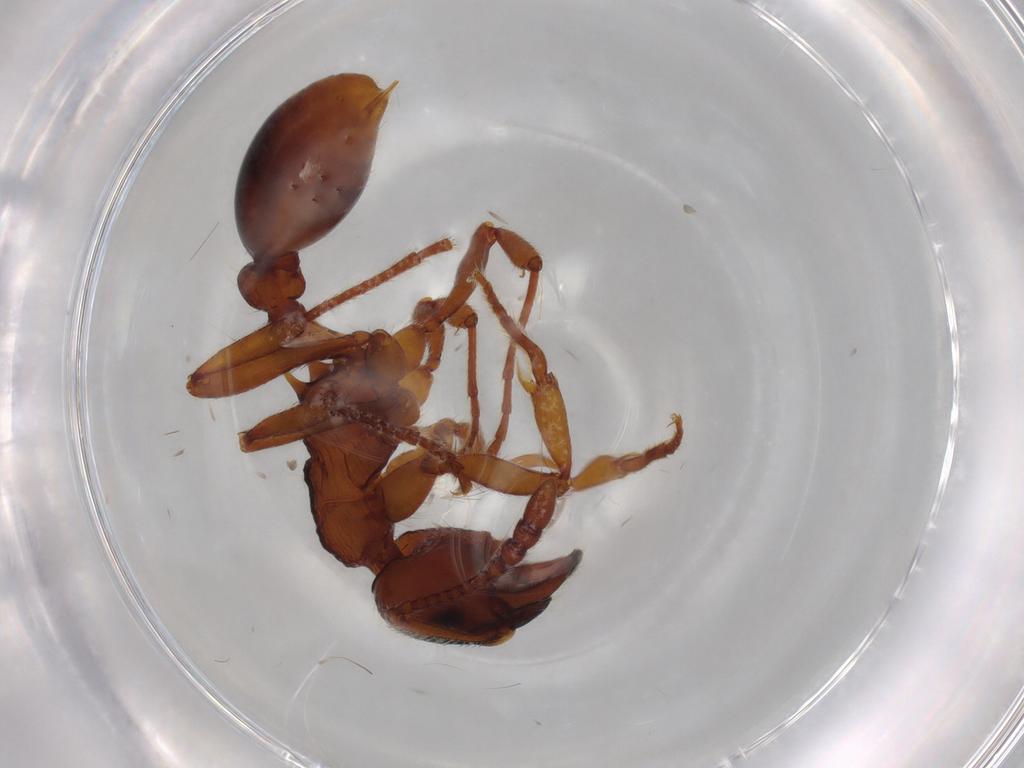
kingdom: Animalia
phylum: Arthropoda
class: Insecta
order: Hymenoptera
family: Formicidae
